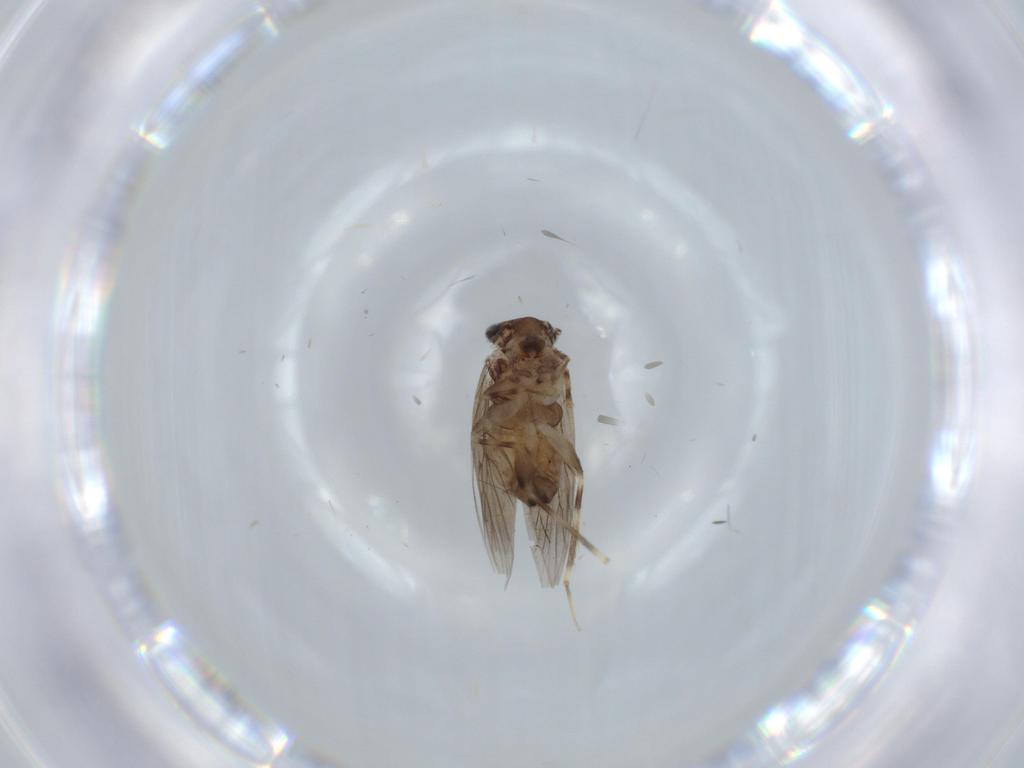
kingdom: Animalia
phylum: Arthropoda
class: Insecta
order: Psocodea
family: Lepidopsocidae
